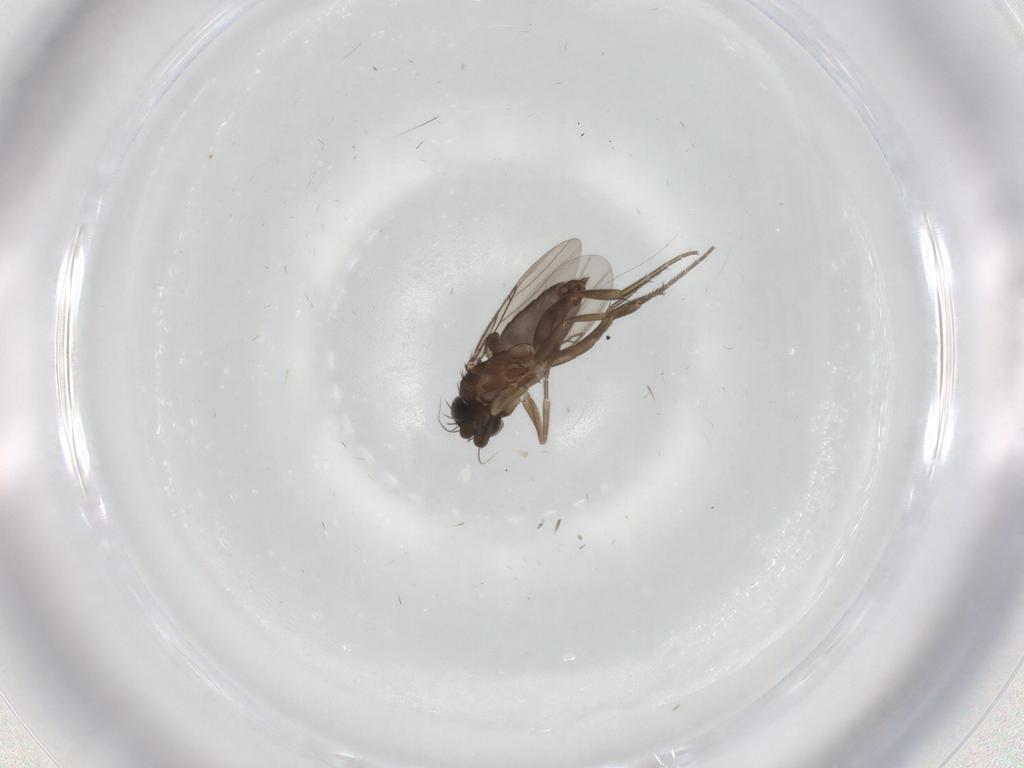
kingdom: Animalia
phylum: Arthropoda
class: Insecta
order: Diptera
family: Phoridae
